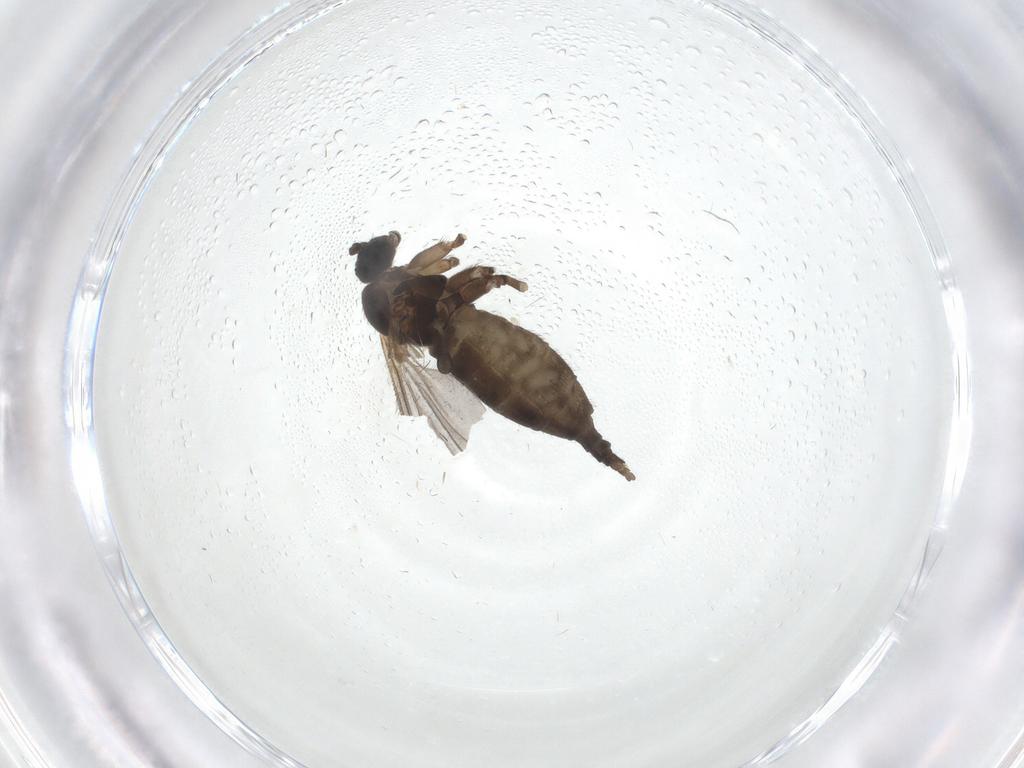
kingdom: Animalia
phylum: Arthropoda
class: Insecta
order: Diptera
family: Sciaridae
